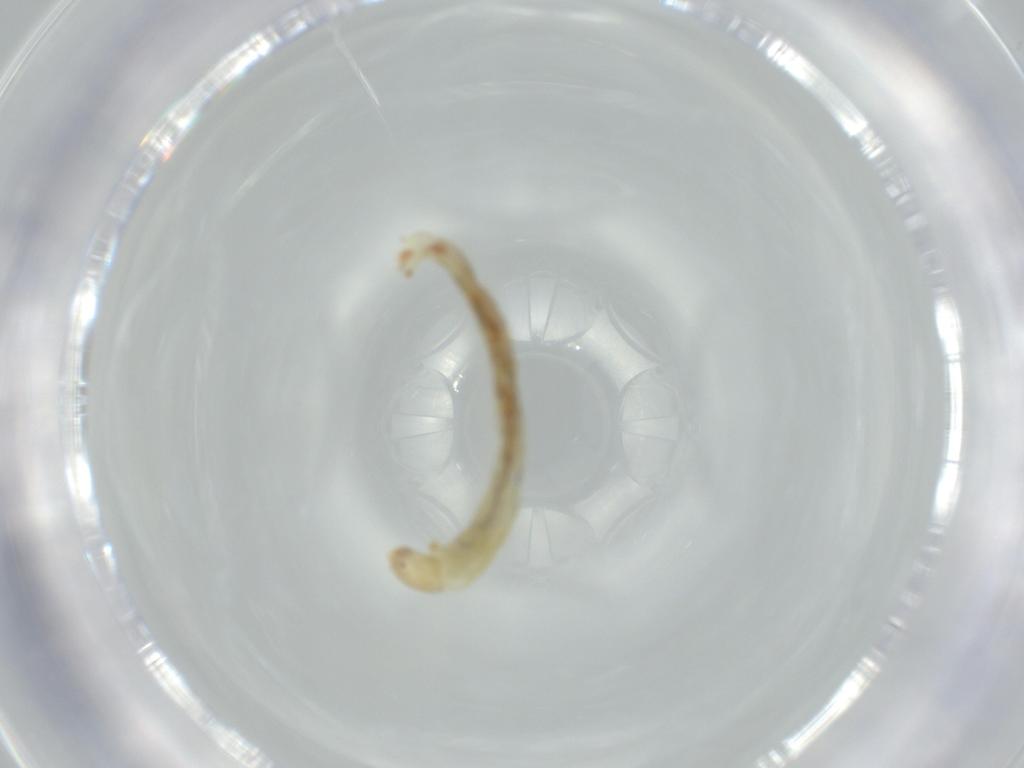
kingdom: Animalia
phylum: Arthropoda
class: Insecta
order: Diptera
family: Chironomidae
